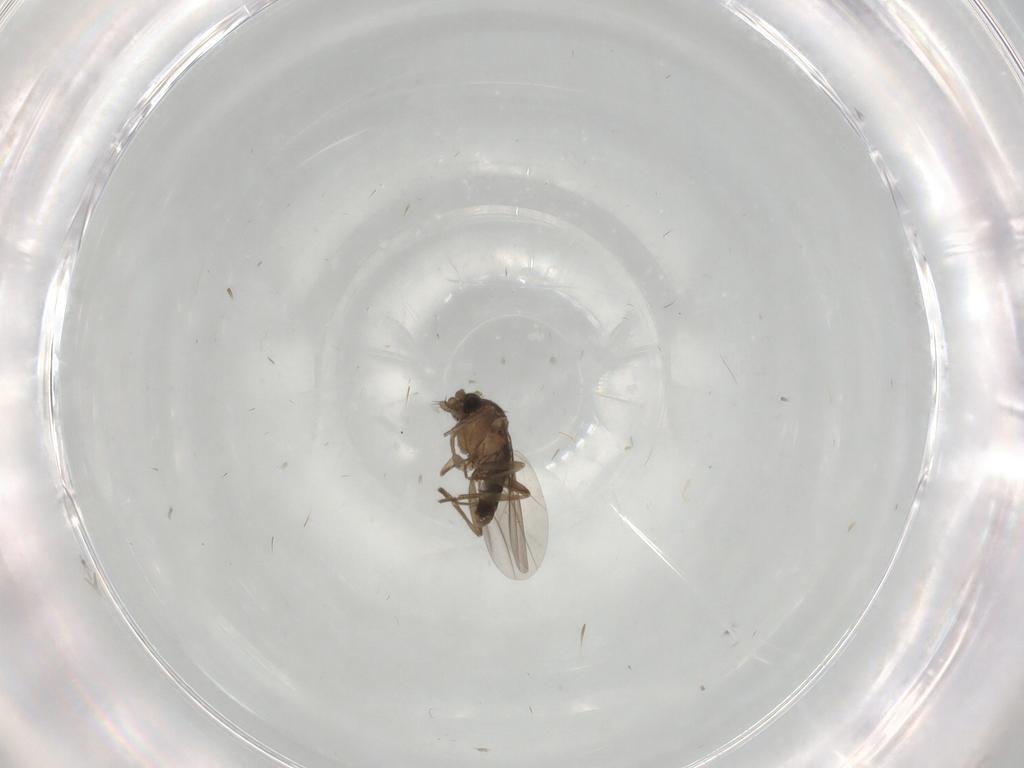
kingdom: Animalia
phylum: Arthropoda
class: Insecta
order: Diptera
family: Phoridae
